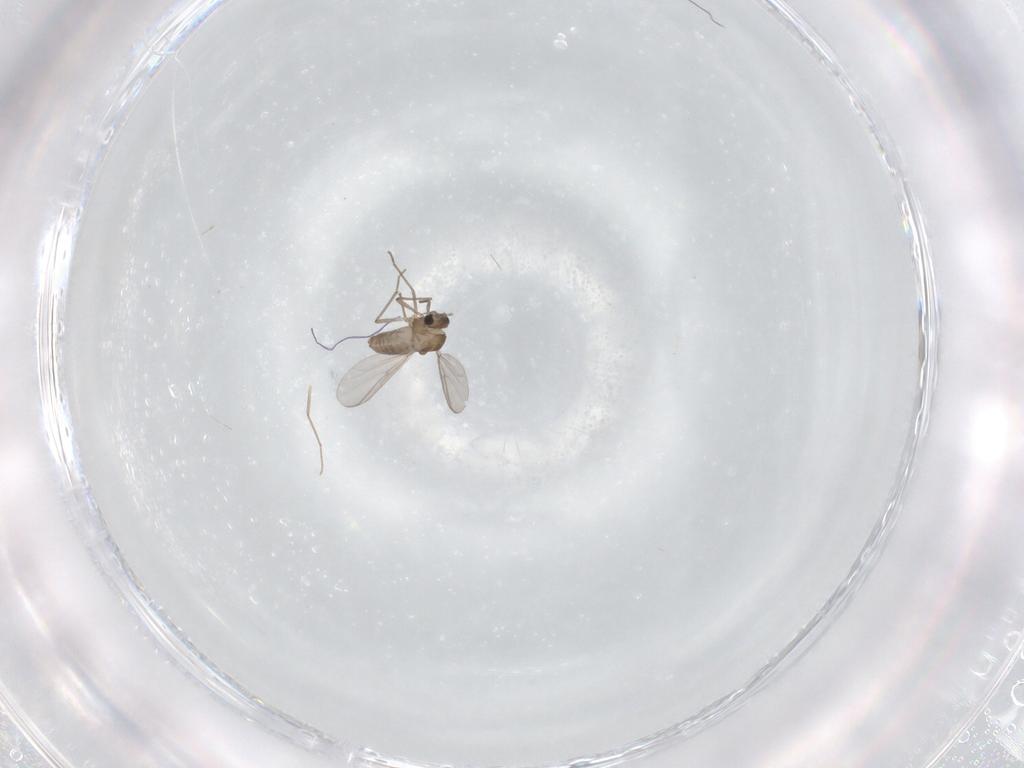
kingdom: Animalia
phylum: Arthropoda
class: Insecta
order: Diptera
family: Chironomidae
